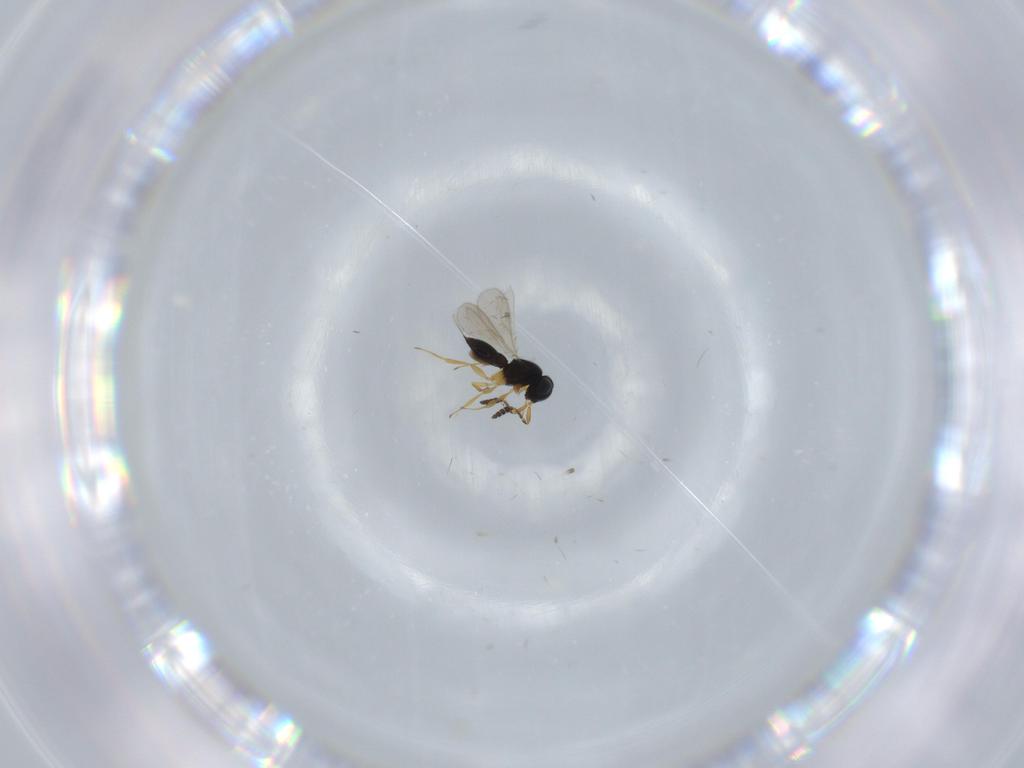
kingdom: Animalia
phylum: Arthropoda
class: Insecta
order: Hymenoptera
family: Scelionidae
